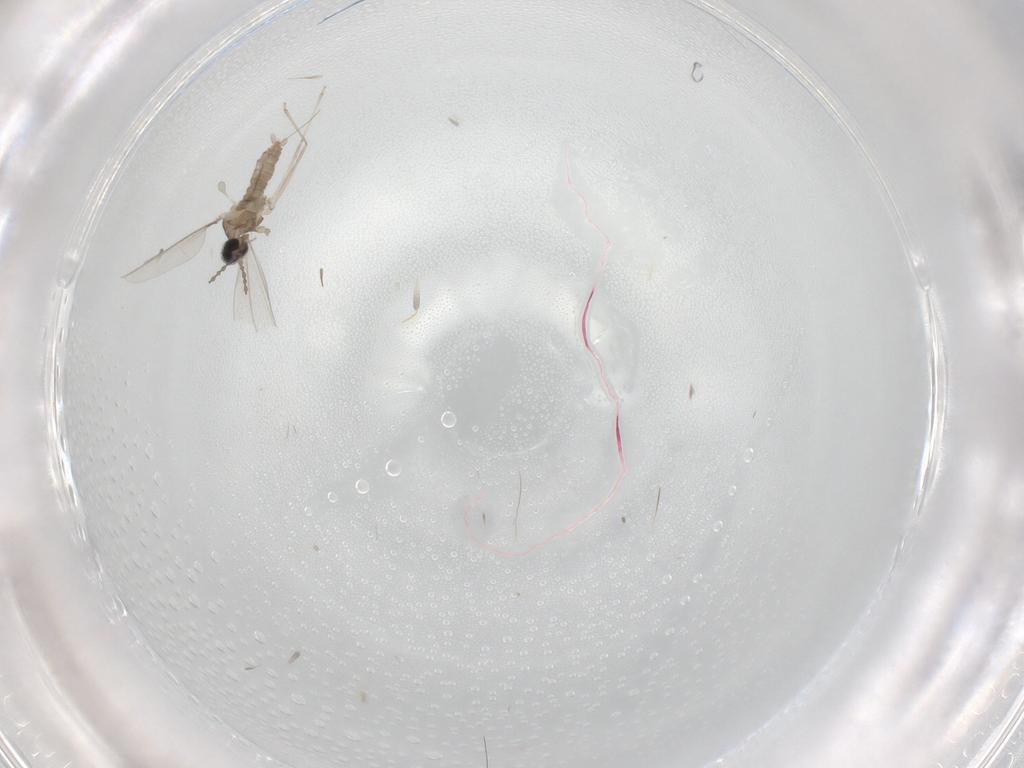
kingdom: Animalia
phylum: Arthropoda
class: Insecta
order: Diptera
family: Cecidomyiidae
